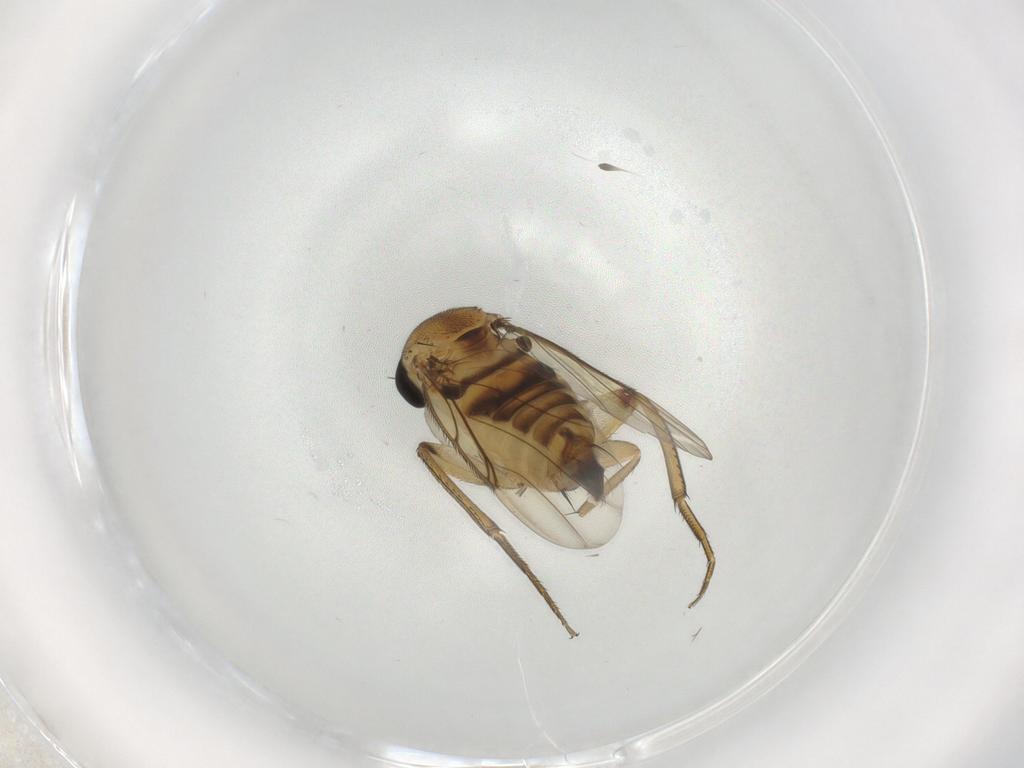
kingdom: Animalia
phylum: Arthropoda
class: Insecta
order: Diptera
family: Phoridae
